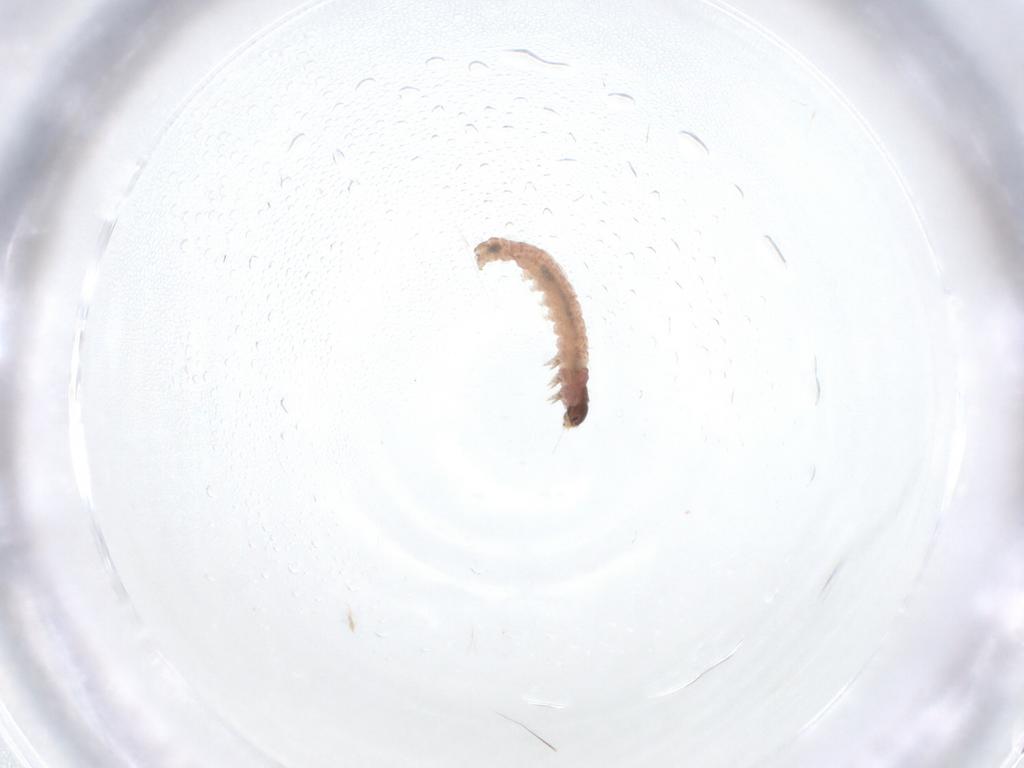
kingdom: Animalia
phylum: Arthropoda
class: Insecta
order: Lepidoptera
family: Gelechiidae
